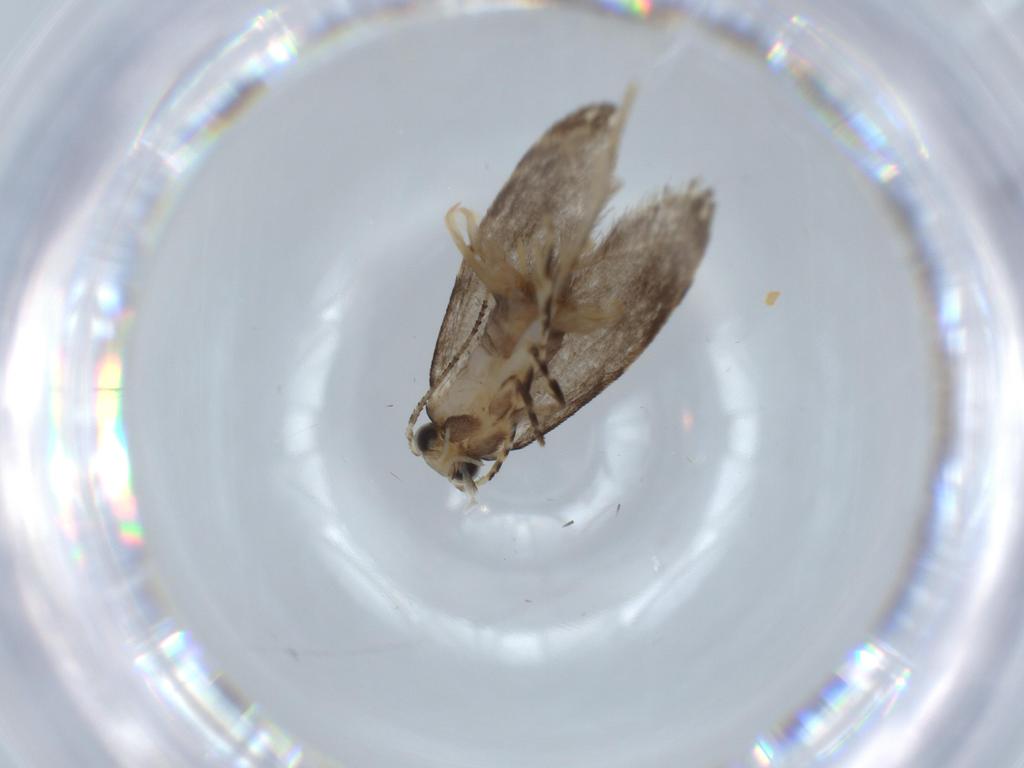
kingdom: Animalia
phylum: Arthropoda
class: Insecta
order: Lepidoptera
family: Tineidae
